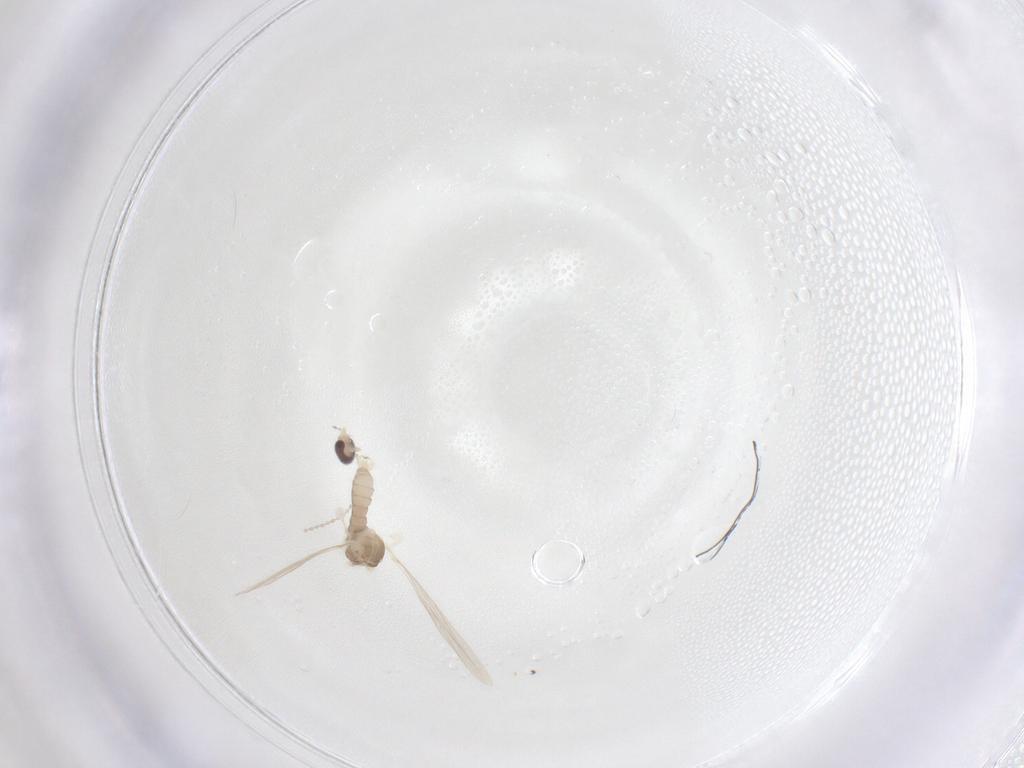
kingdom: Animalia
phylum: Arthropoda
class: Insecta
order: Diptera
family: Cecidomyiidae
